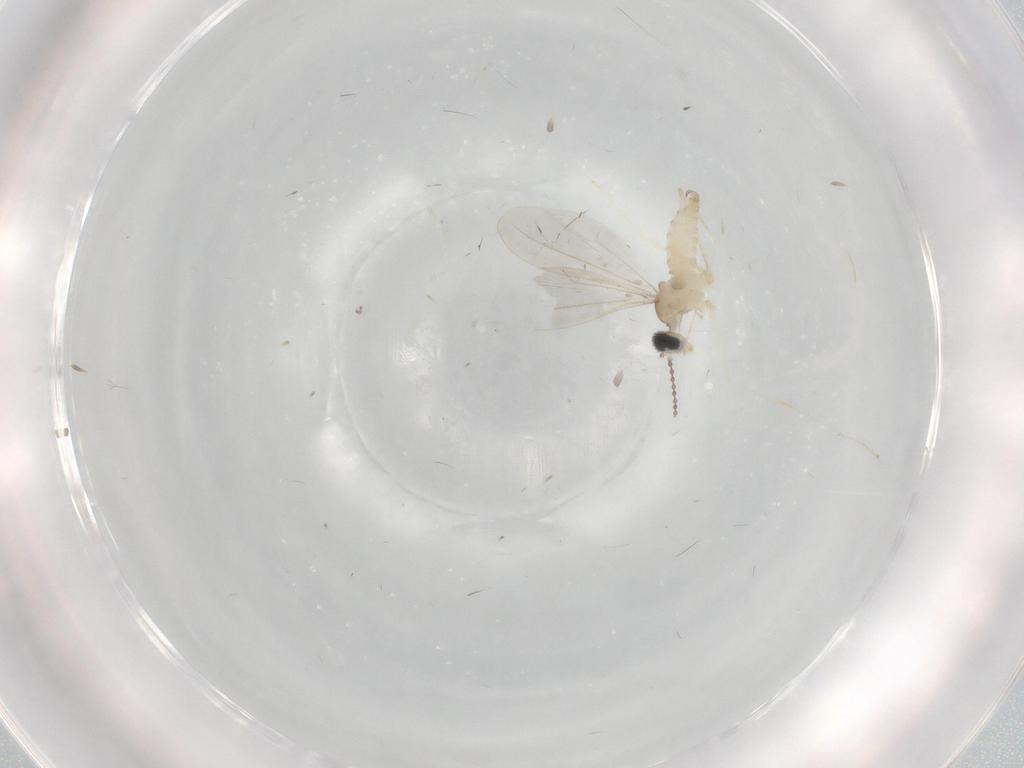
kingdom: Animalia
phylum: Arthropoda
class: Insecta
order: Diptera
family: Cecidomyiidae
